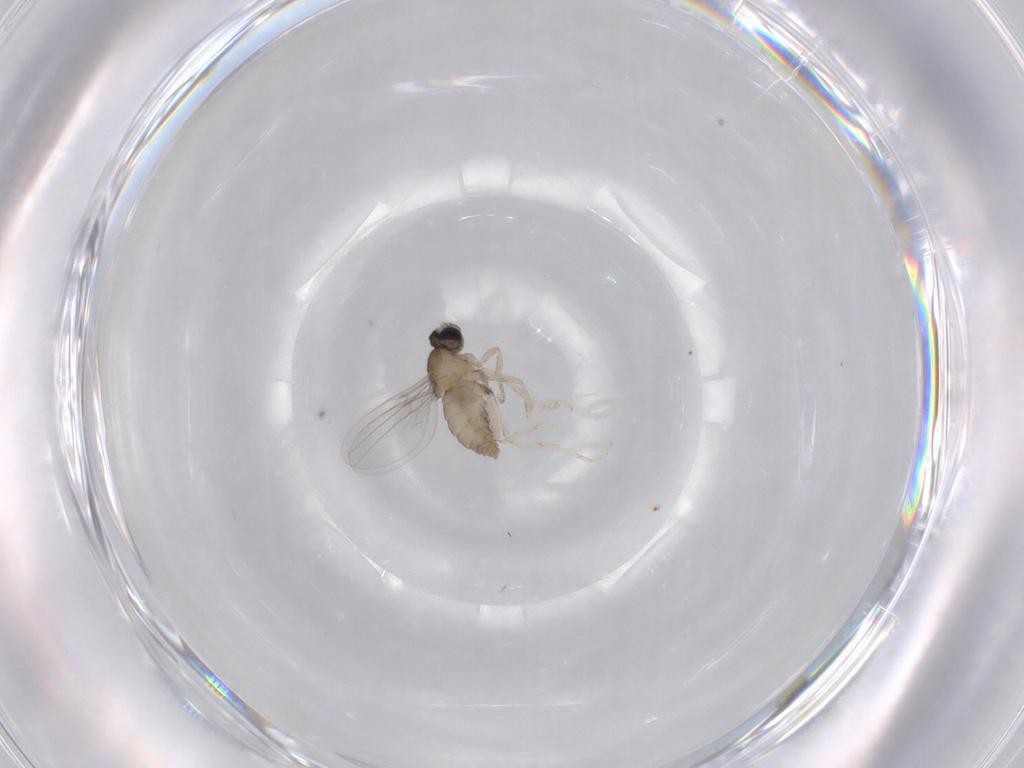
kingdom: Animalia
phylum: Arthropoda
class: Insecta
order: Diptera
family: Cecidomyiidae
